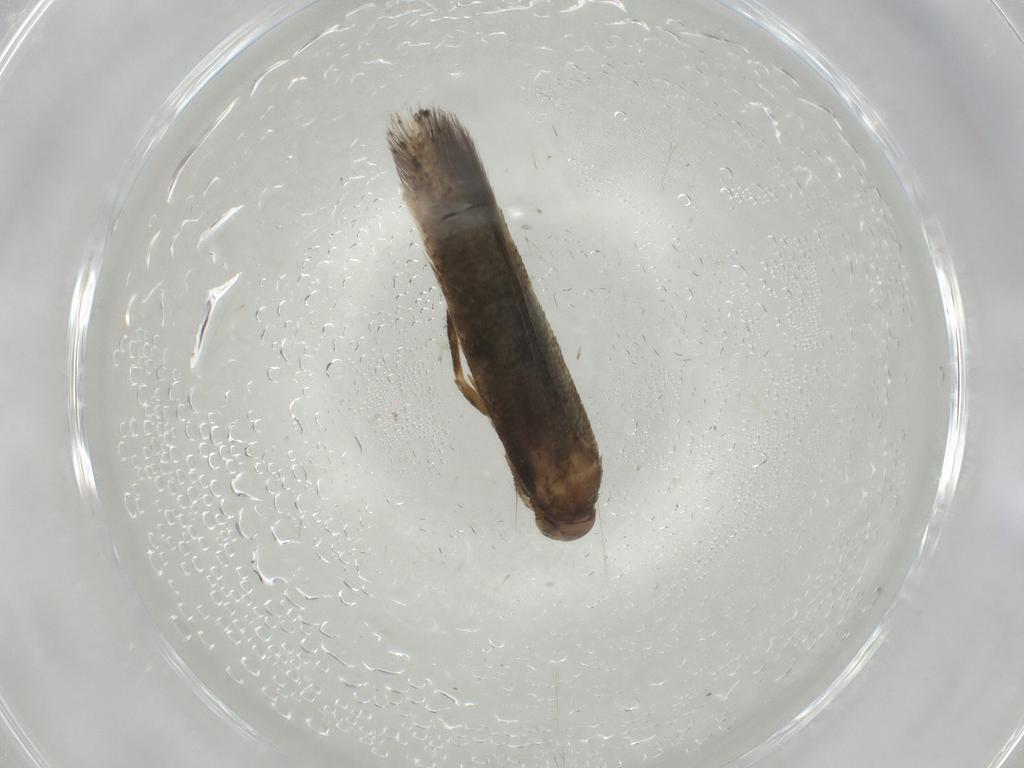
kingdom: Animalia
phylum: Arthropoda
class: Insecta
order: Lepidoptera
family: Elachistidae
